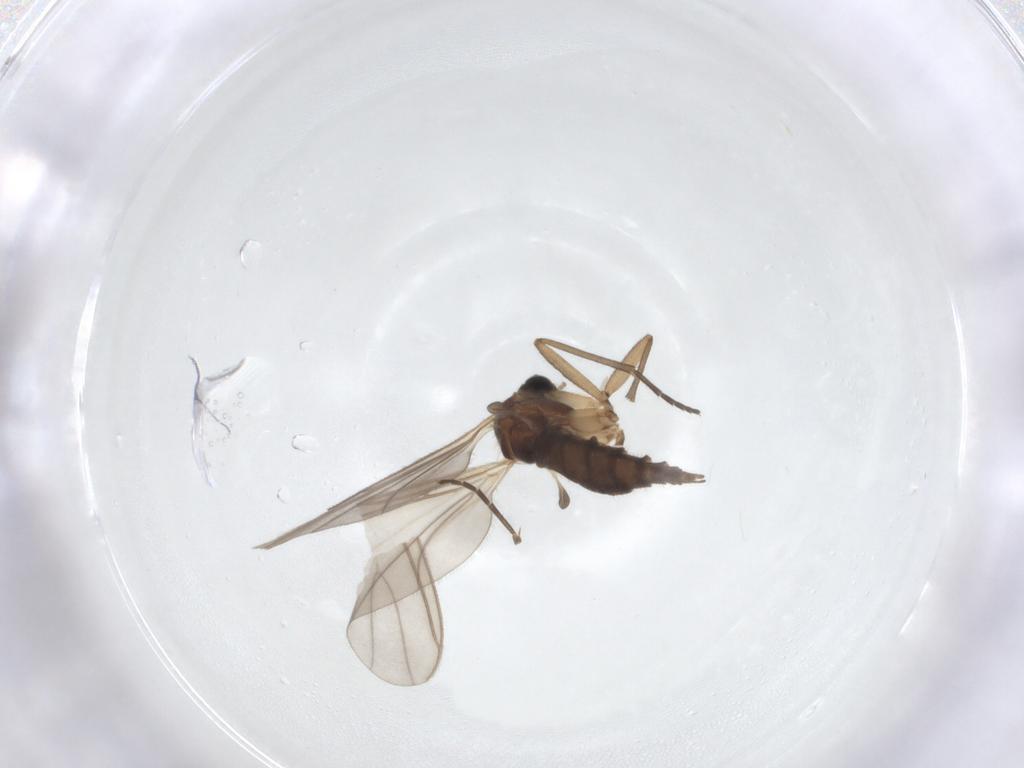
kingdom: Animalia
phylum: Arthropoda
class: Insecta
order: Diptera
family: Sciaridae
